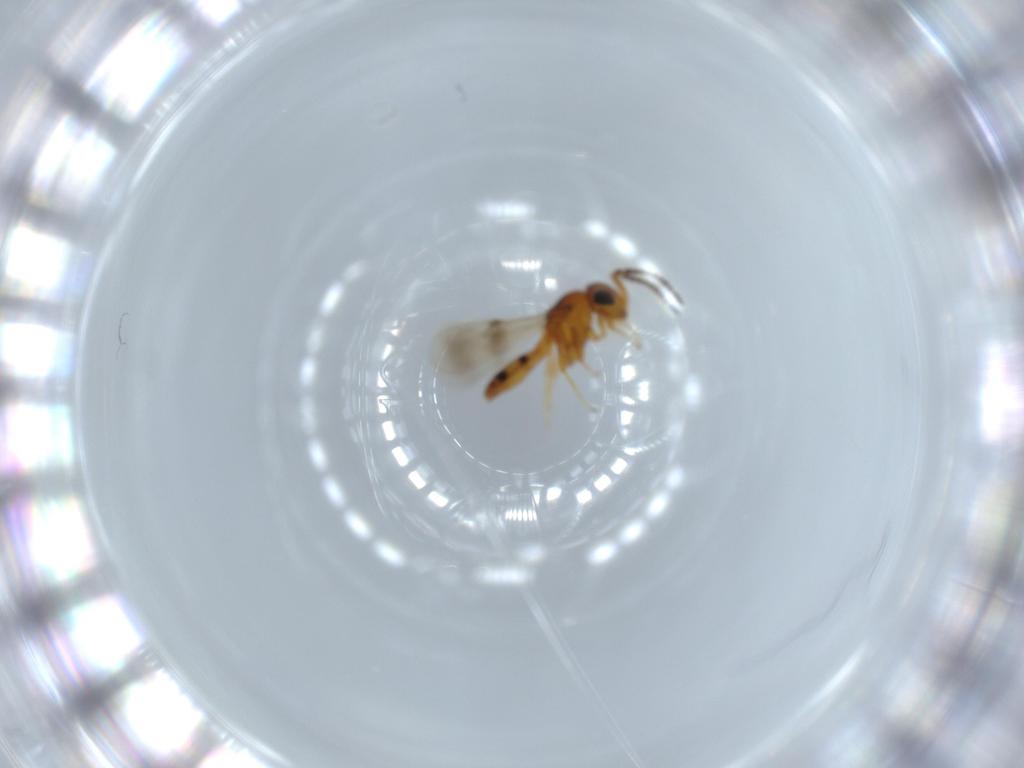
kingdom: Animalia
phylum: Arthropoda
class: Insecta
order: Hymenoptera
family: Scelionidae
